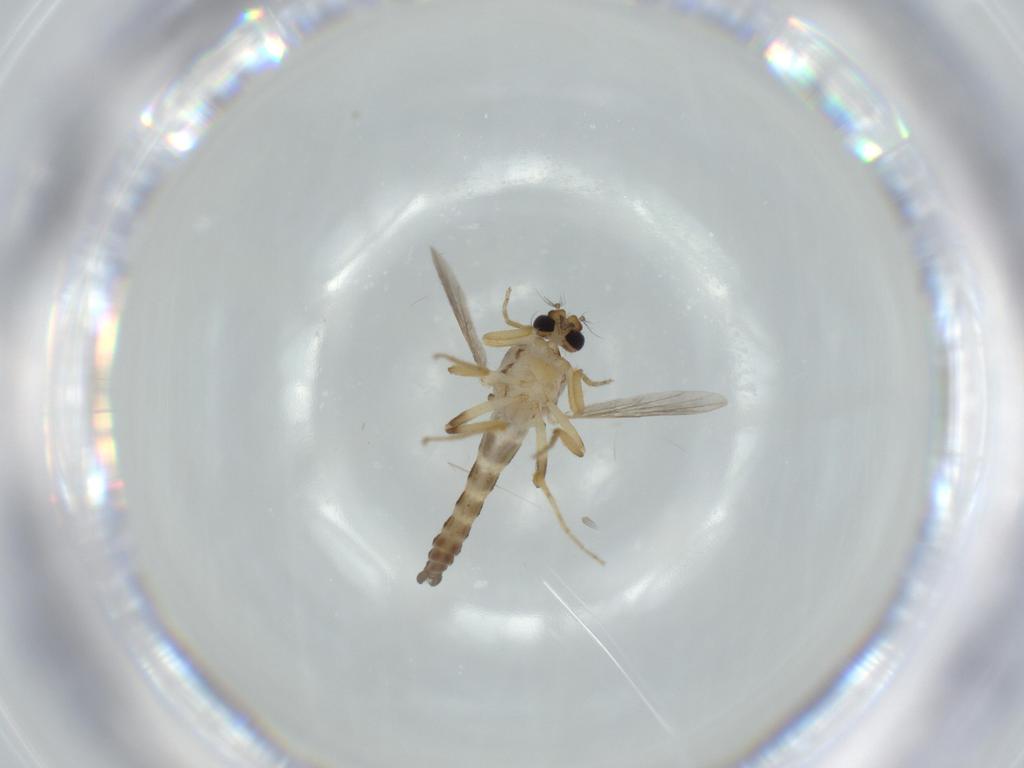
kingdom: Animalia
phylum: Arthropoda
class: Insecta
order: Diptera
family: Ceratopogonidae
